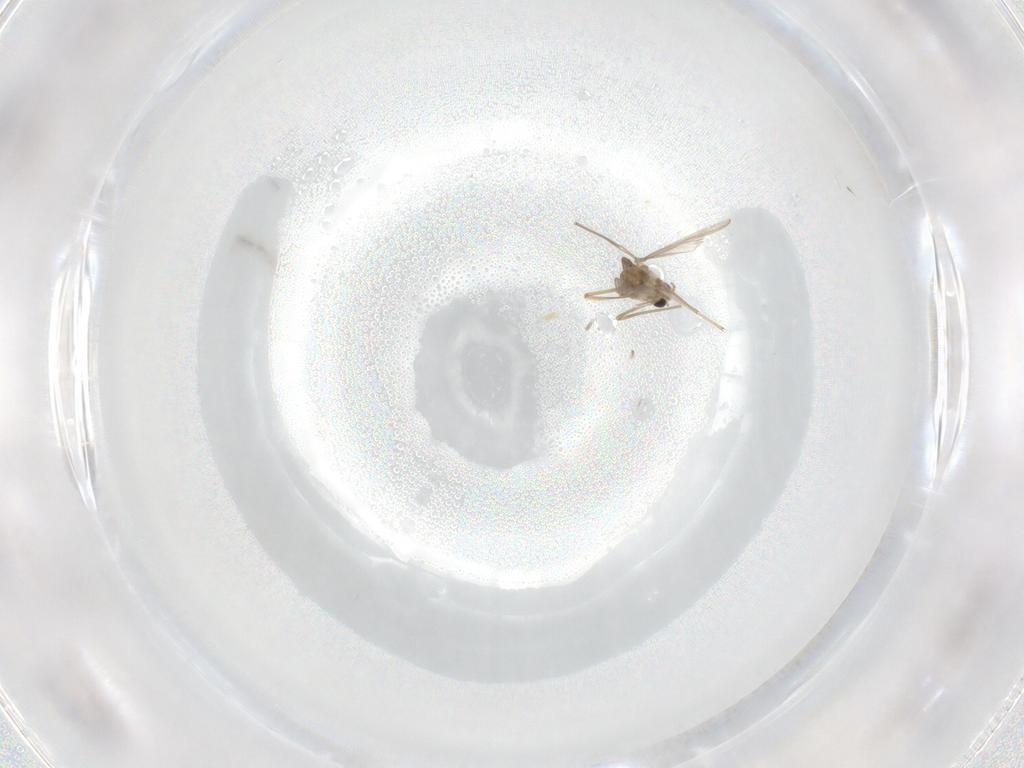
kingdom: Animalia
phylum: Arthropoda
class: Insecta
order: Diptera
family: Chironomidae
